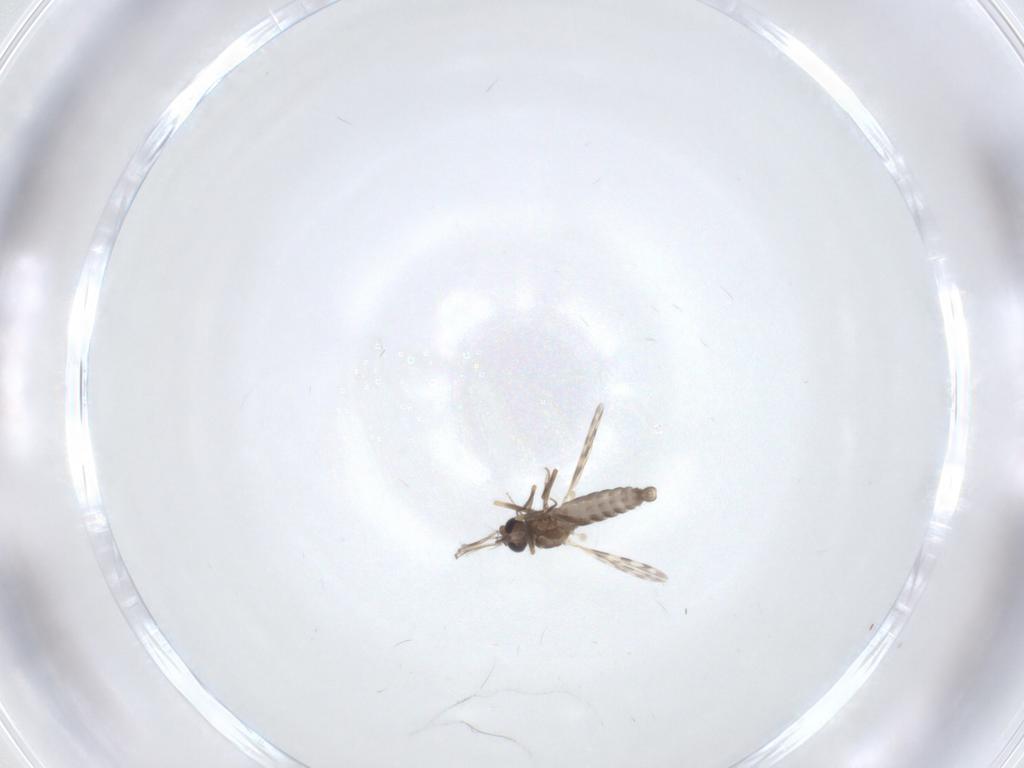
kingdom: Animalia
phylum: Arthropoda
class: Insecta
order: Diptera
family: Ceratopogonidae
